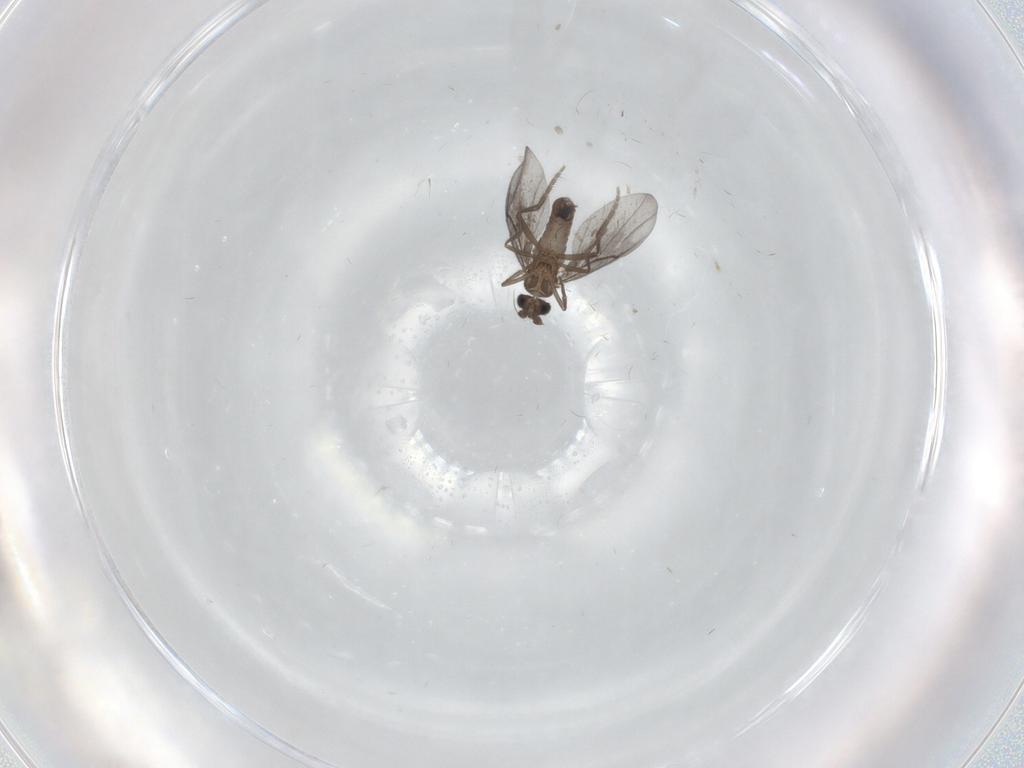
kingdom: Animalia
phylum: Arthropoda
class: Insecta
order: Diptera
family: Phoridae
